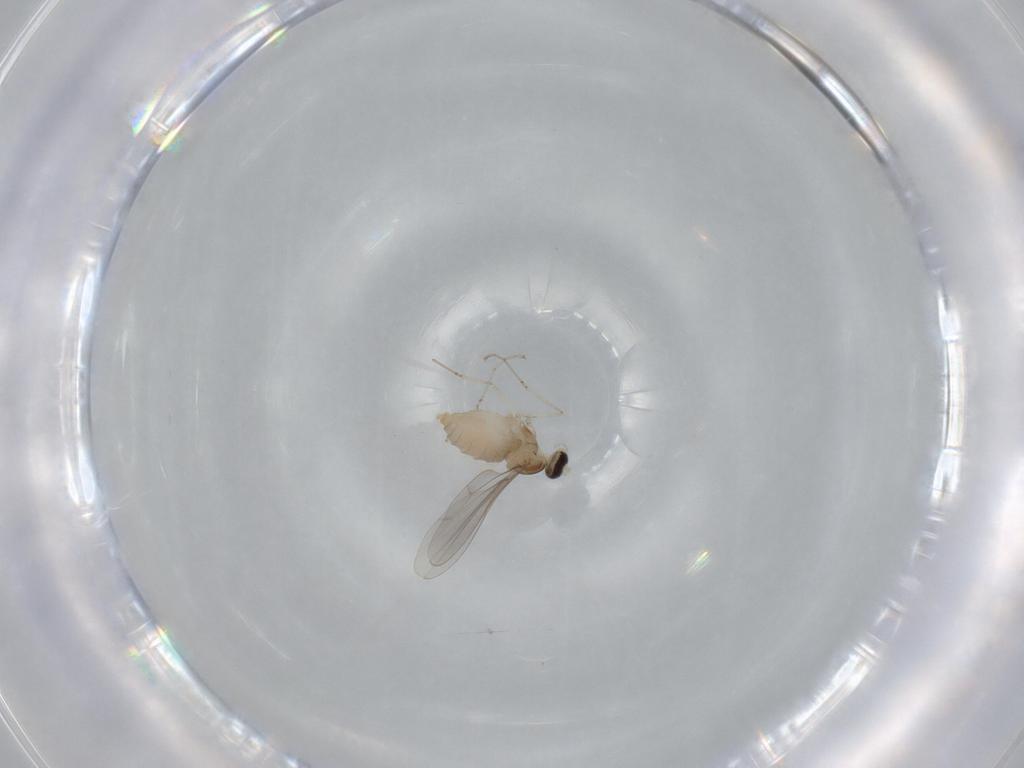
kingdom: Animalia
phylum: Arthropoda
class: Insecta
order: Diptera
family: Cecidomyiidae
